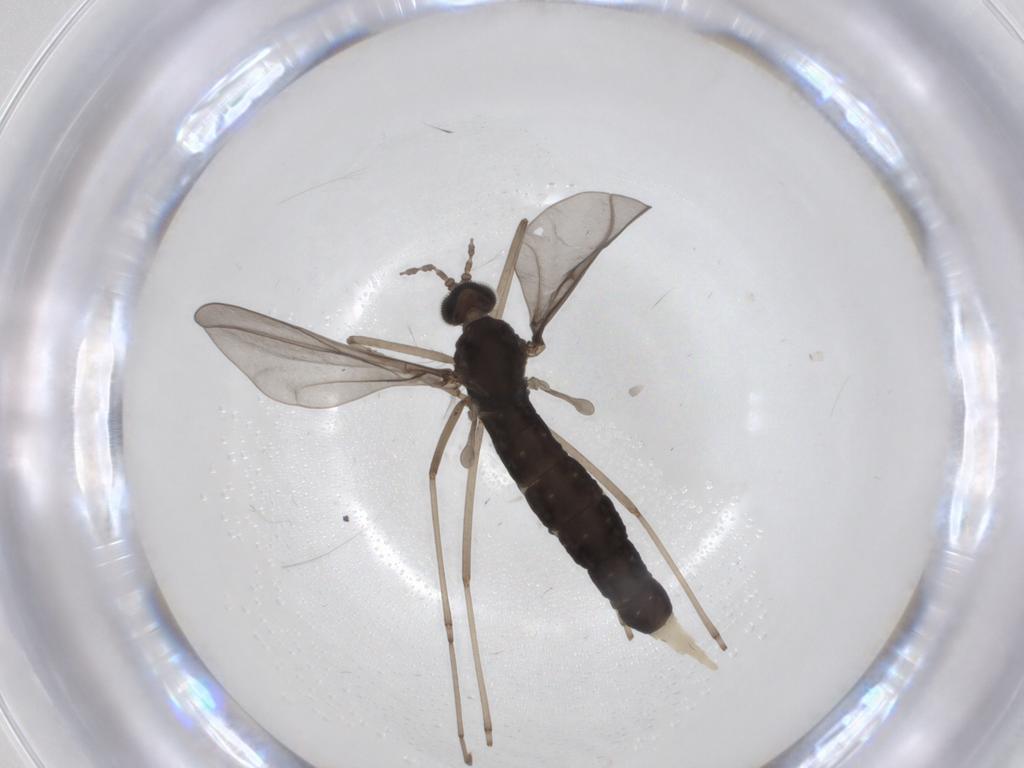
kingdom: Animalia
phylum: Arthropoda
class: Insecta
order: Diptera
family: Cecidomyiidae
